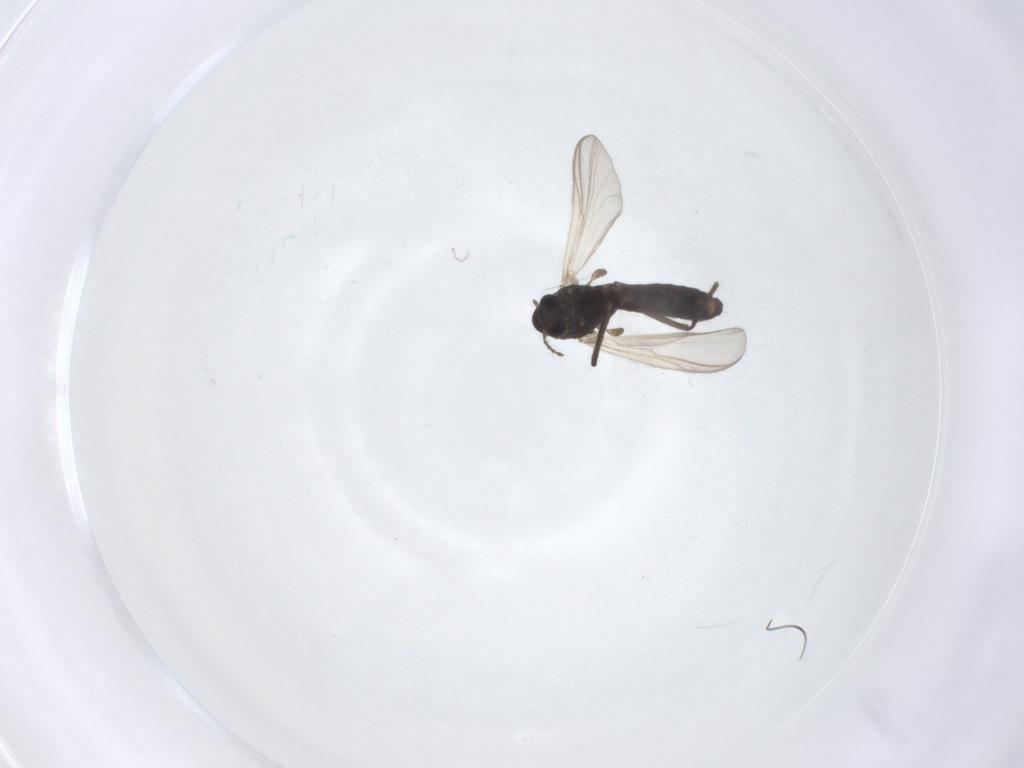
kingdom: Animalia
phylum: Arthropoda
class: Insecta
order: Diptera
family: Chironomidae
